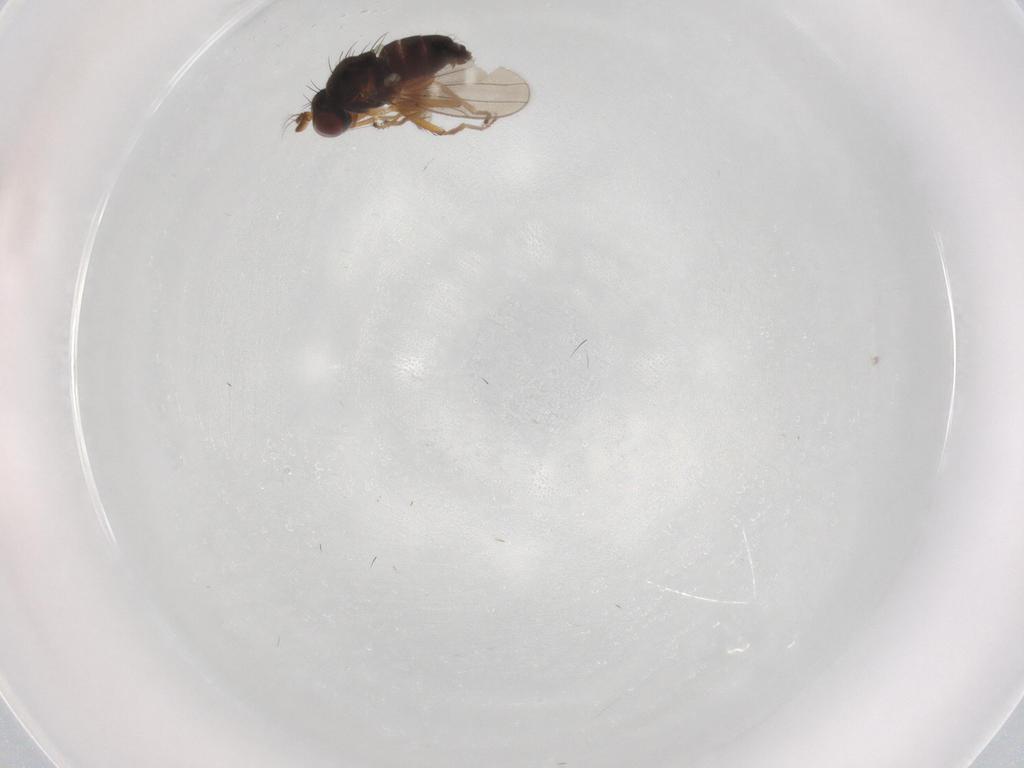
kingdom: Animalia
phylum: Arthropoda
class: Insecta
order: Diptera
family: Ephydridae
